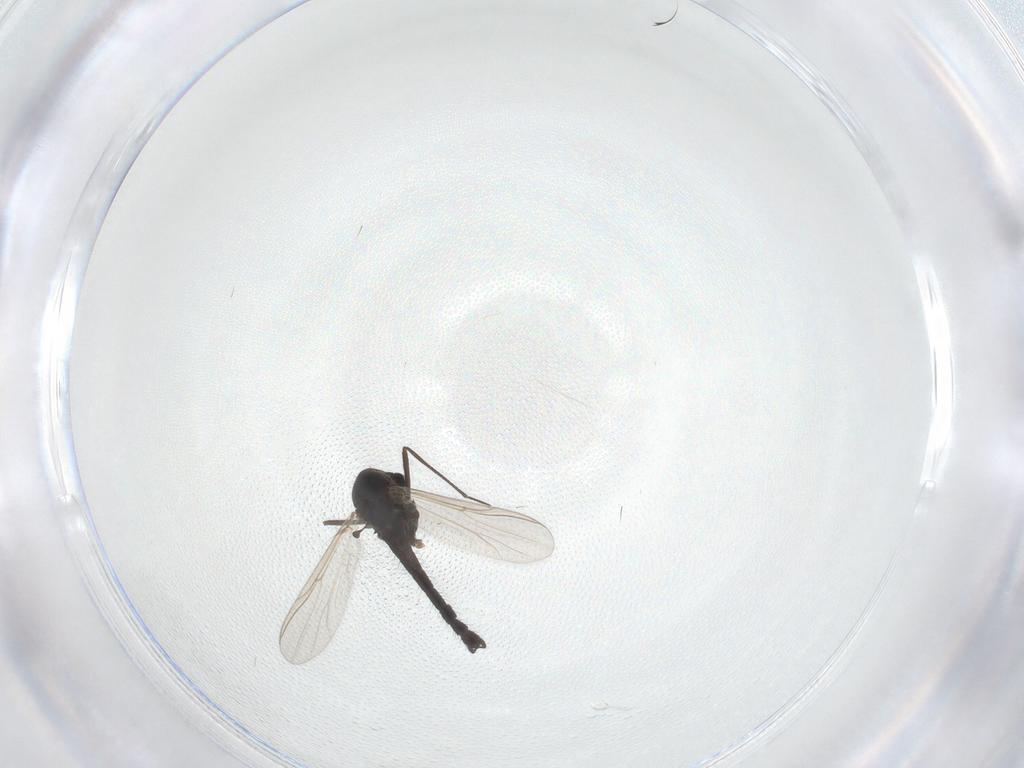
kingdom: Animalia
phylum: Arthropoda
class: Insecta
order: Diptera
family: Chironomidae
